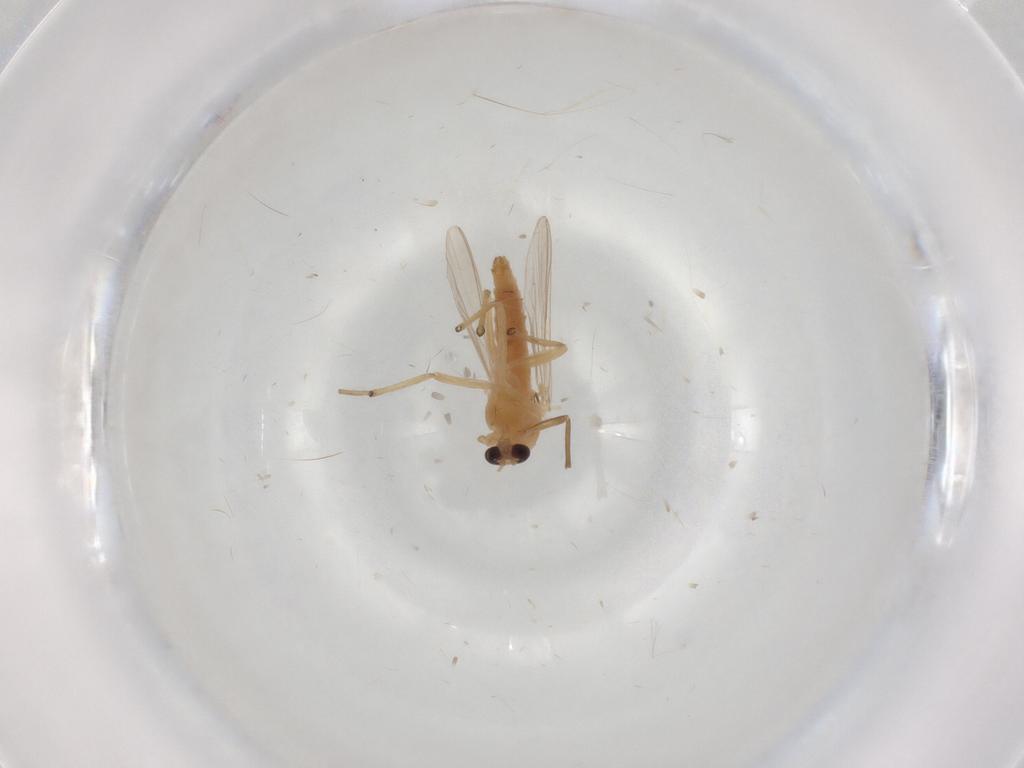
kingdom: Animalia
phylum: Arthropoda
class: Insecta
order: Diptera
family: Chironomidae
